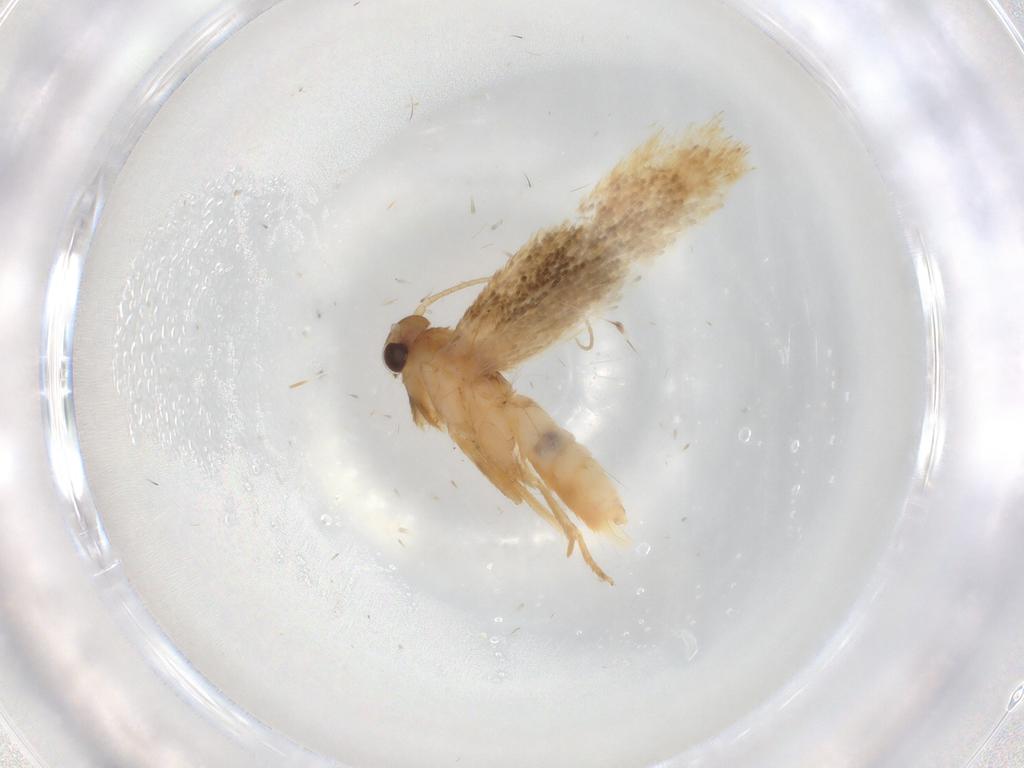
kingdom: Animalia
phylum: Arthropoda
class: Insecta
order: Lepidoptera
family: Elachistidae
